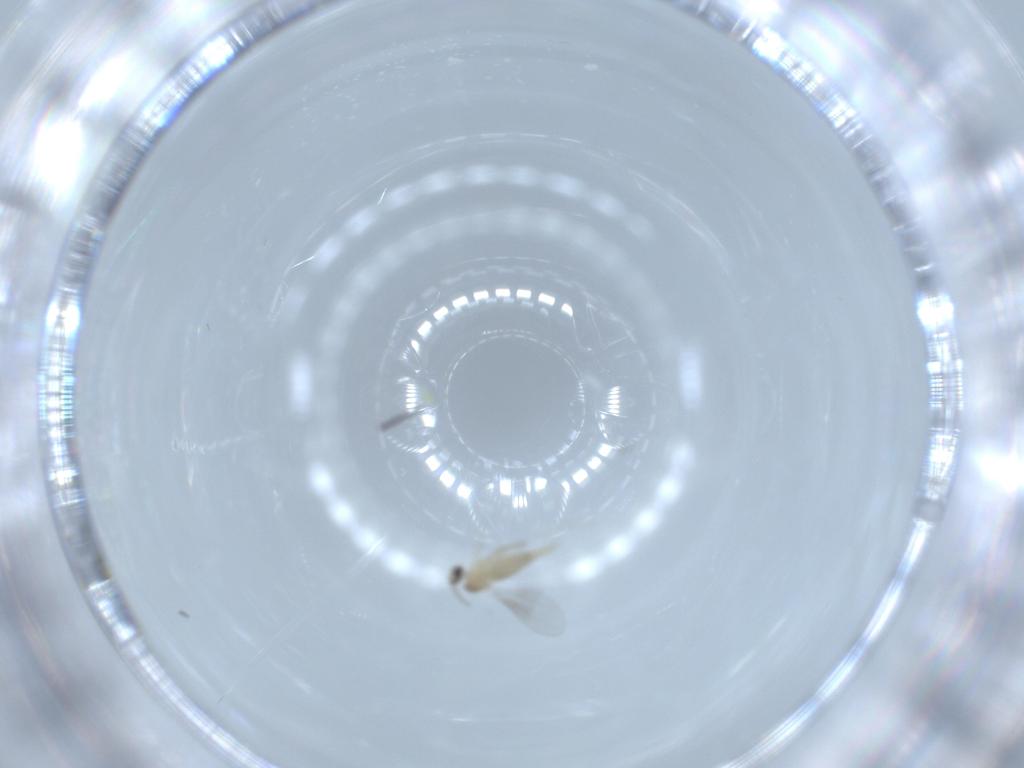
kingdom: Animalia
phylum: Arthropoda
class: Insecta
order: Diptera
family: Cecidomyiidae
